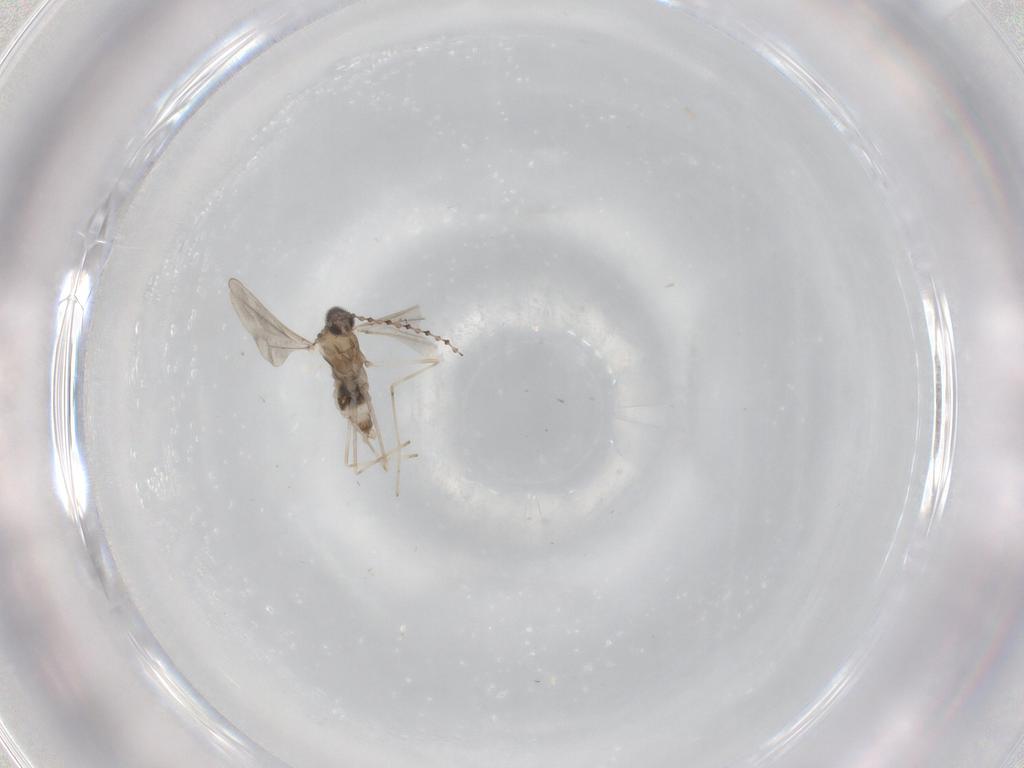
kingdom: Animalia
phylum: Arthropoda
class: Insecta
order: Diptera
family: Cecidomyiidae
